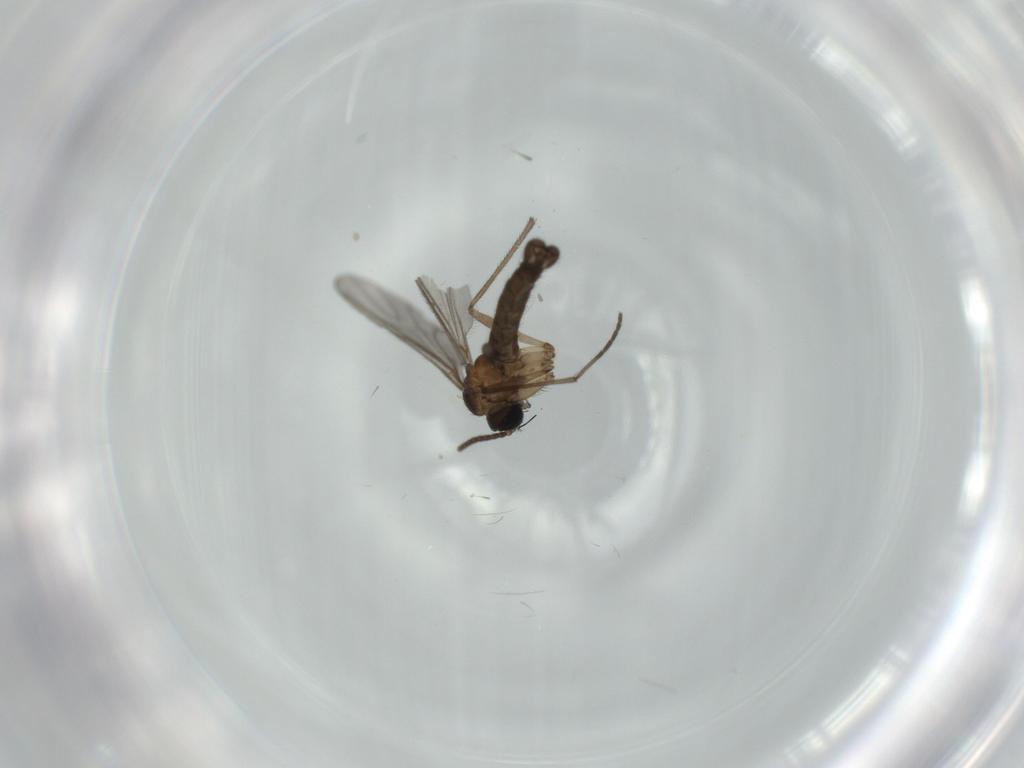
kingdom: Animalia
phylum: Arthropoda
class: Insecta
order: Diptera
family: Sciaridae
